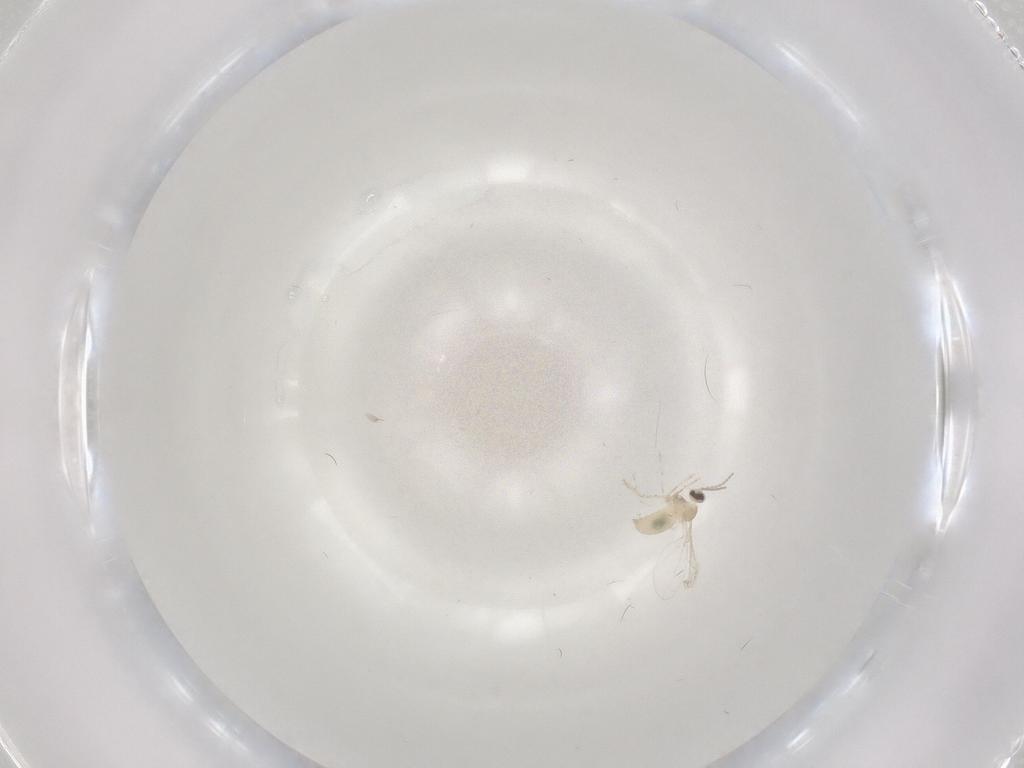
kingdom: Animalia
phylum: Arthropoda
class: Insecta
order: Diptera
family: Cecidomyiidae
